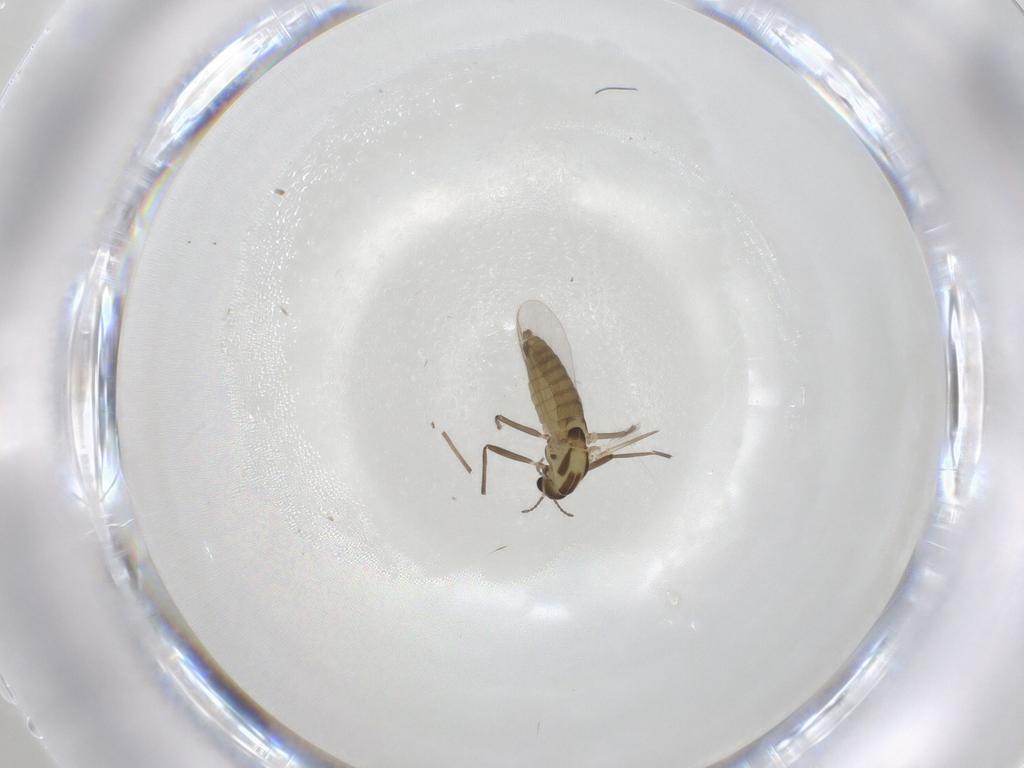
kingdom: Animalia
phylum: Arthropoda
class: Insecta
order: Diptera
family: Chironomidae
